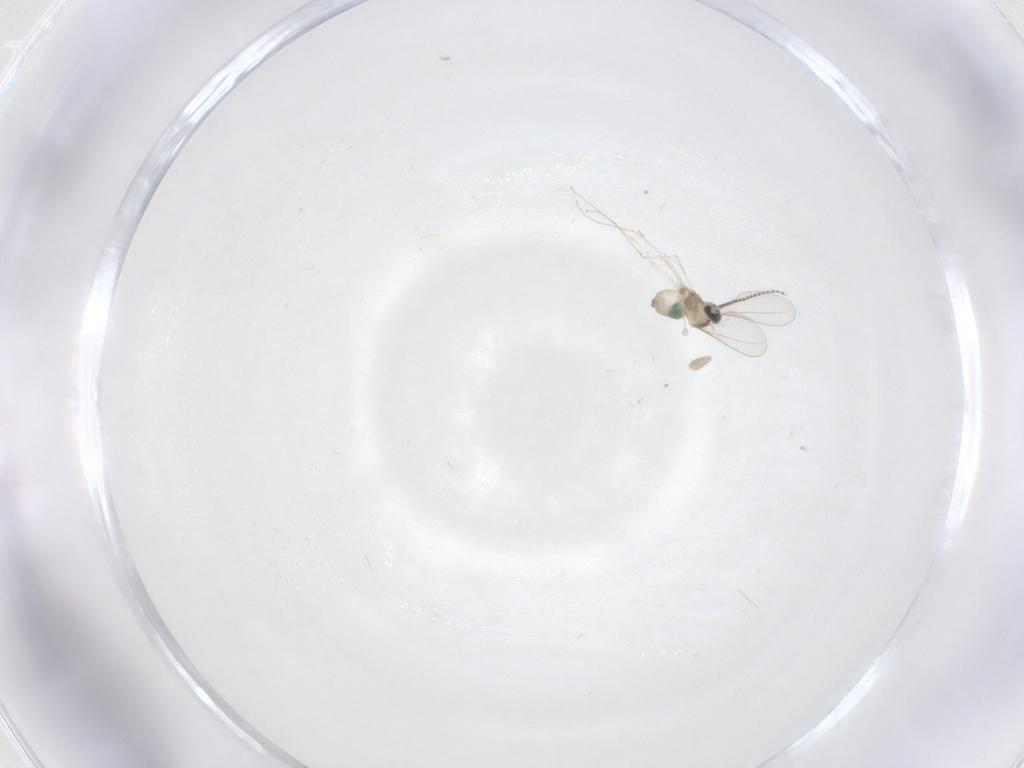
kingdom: Animalia
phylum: Arthropoda
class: Insecta
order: Diptera
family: Cecidomyiidae
